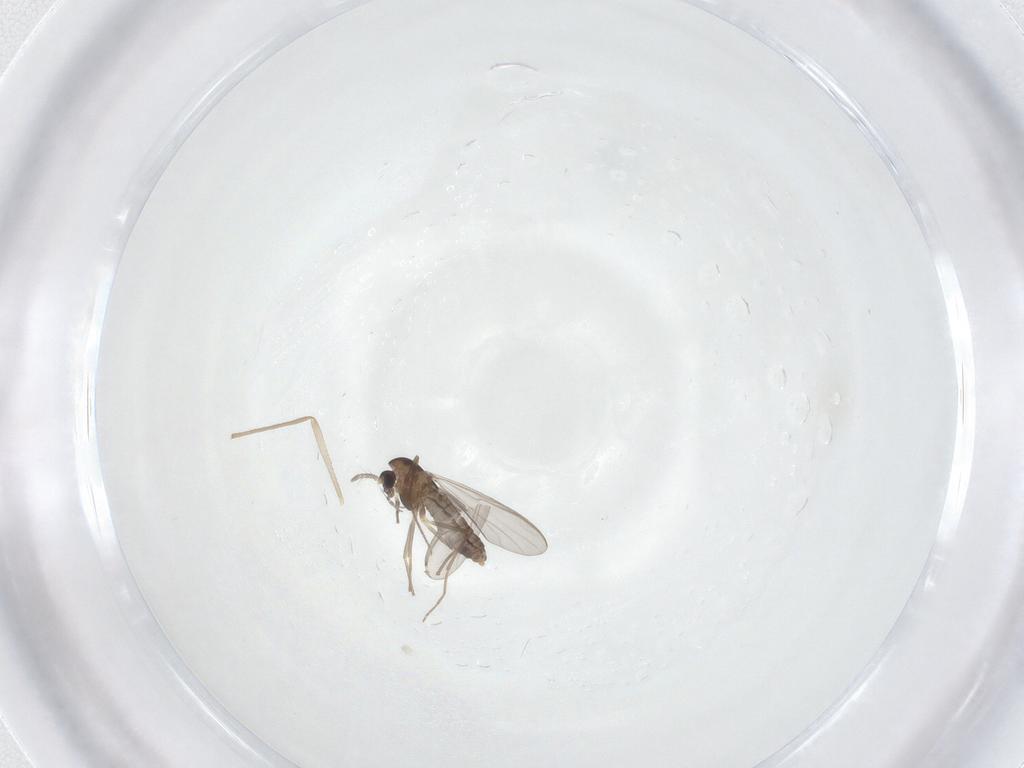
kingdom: Animalia
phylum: Arthropoda
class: Insecta
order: Diptera
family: Chironomidae
